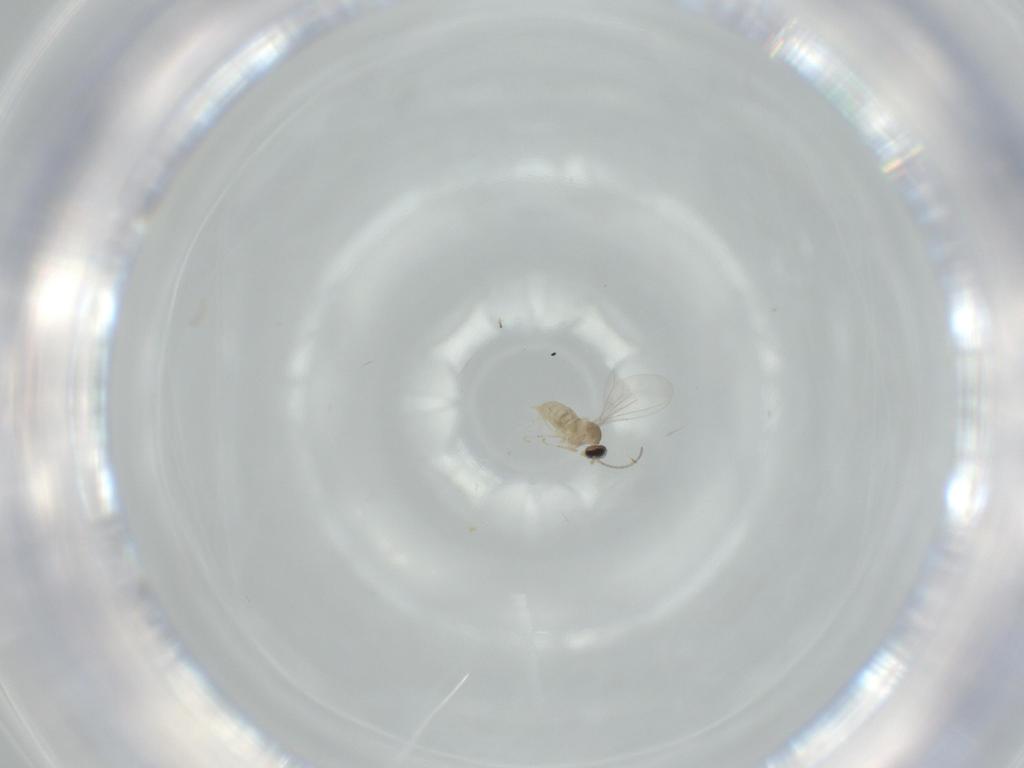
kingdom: Animalia
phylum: Arthropoda
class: Insecta
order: Diptera
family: Cecidomyiidae
